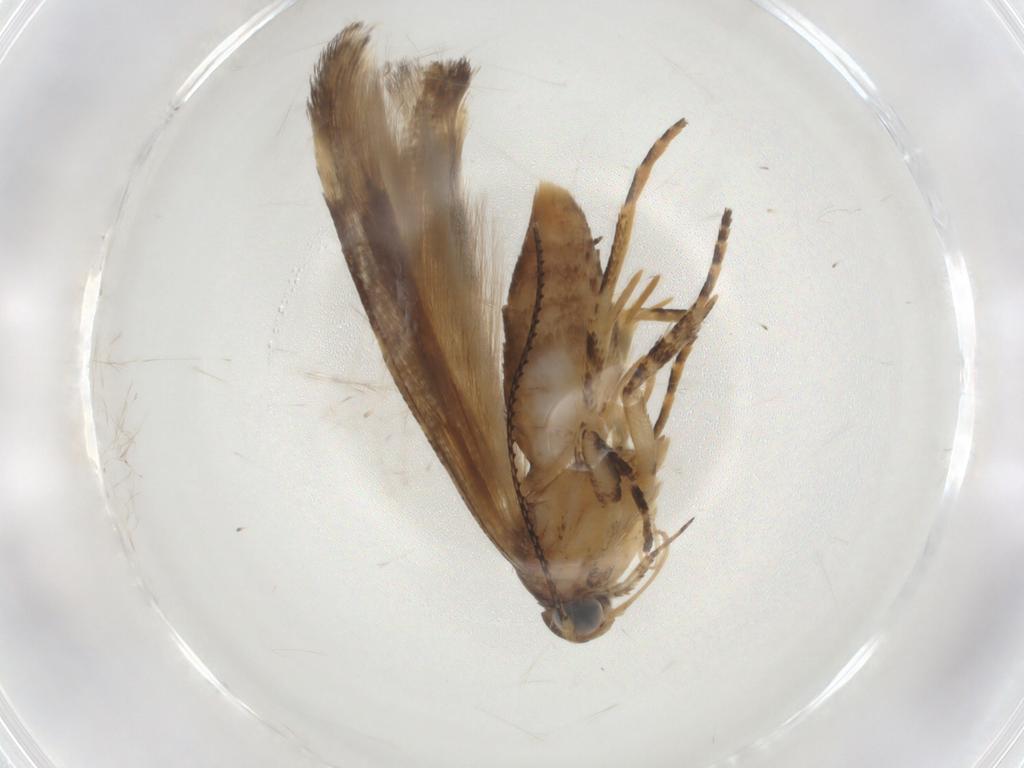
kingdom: Animalia
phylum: Arthropoda
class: Insecta
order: Lepidoptera
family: Gelechiidae
